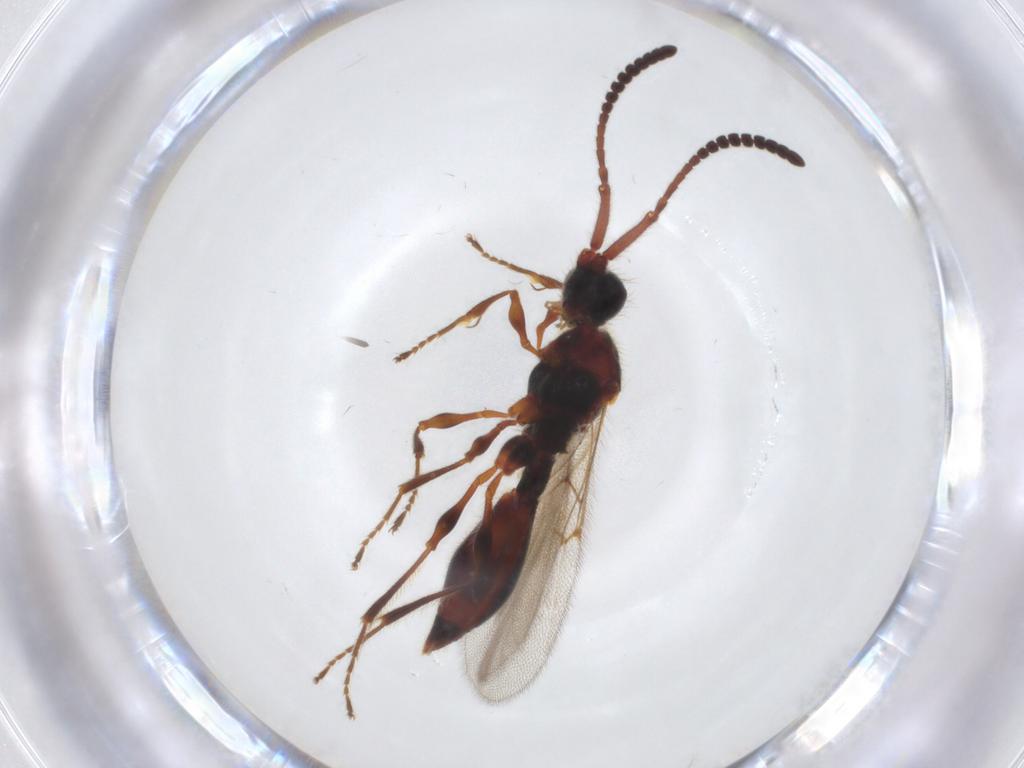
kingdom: Animalia
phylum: Arthropoda
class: Insecta
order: Hymenoptera
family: Diapriidae
